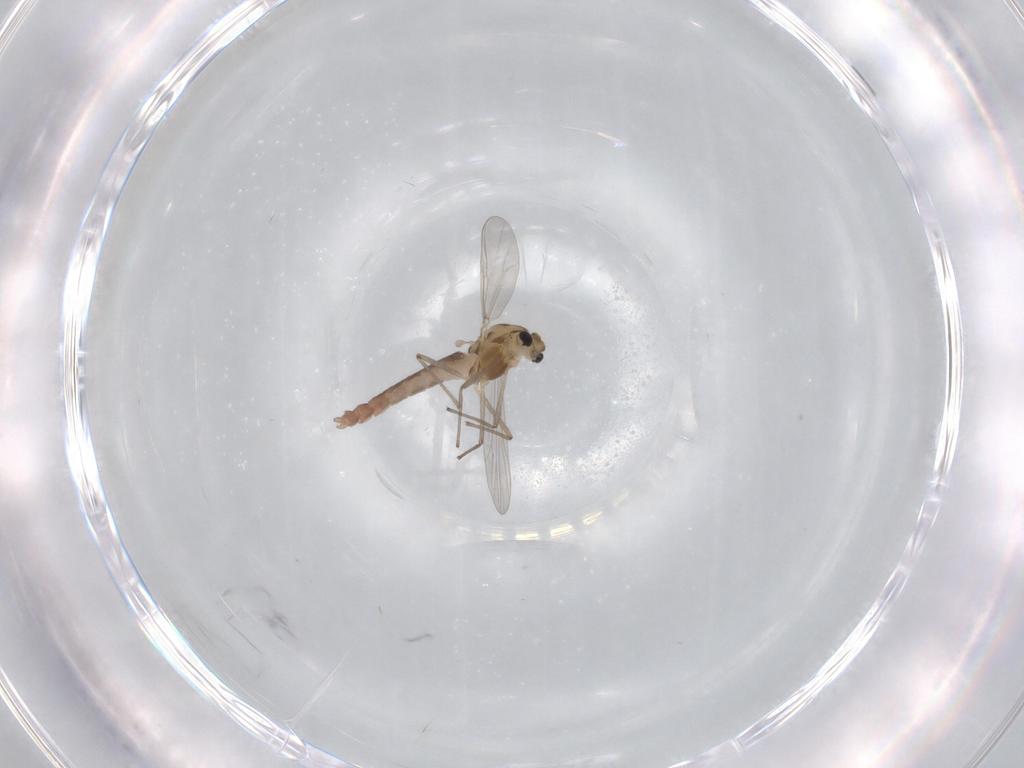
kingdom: Animalia
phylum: Arthropoda
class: Insecta
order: Diptera
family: Chironomidae
